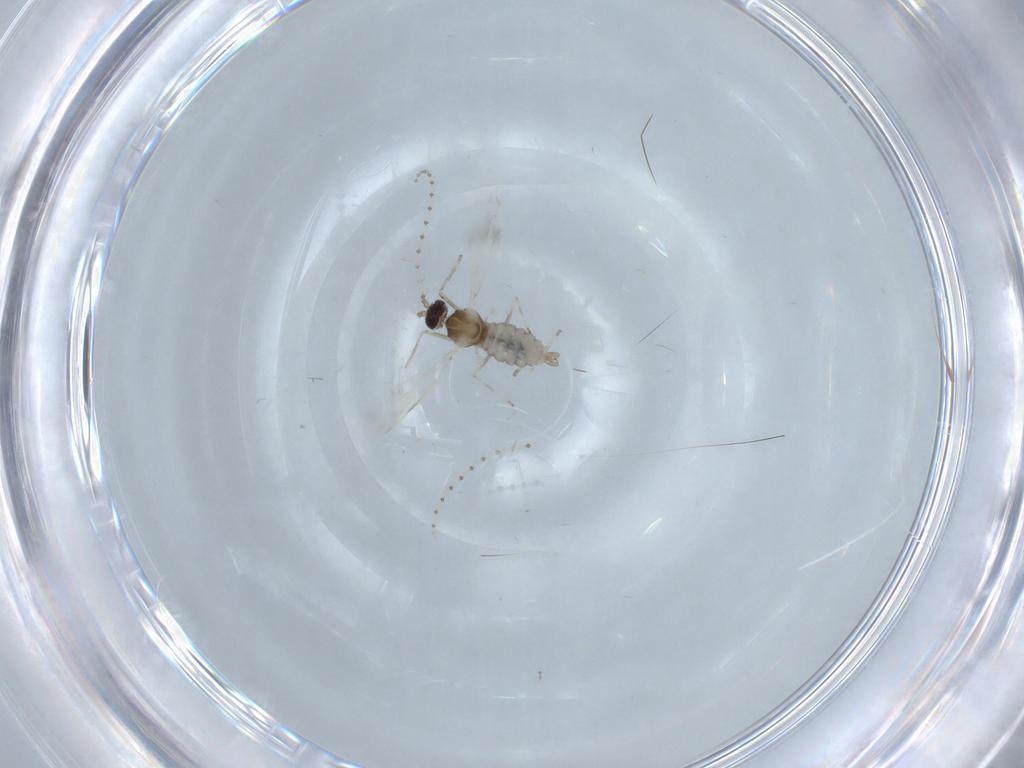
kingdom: Animalia
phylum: Arthropoda
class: Insecta
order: Diptera
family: Cecidomyiidae
